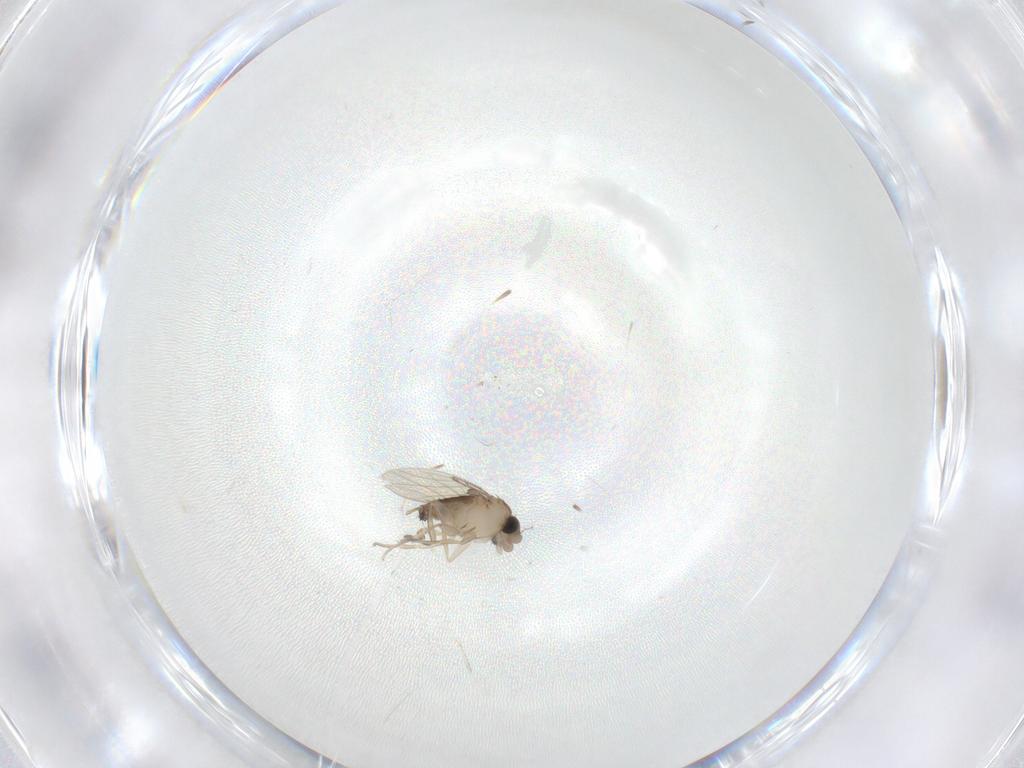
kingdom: Animalia
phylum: Arthropoda
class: Insecta
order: Diptera
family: Phoridae
